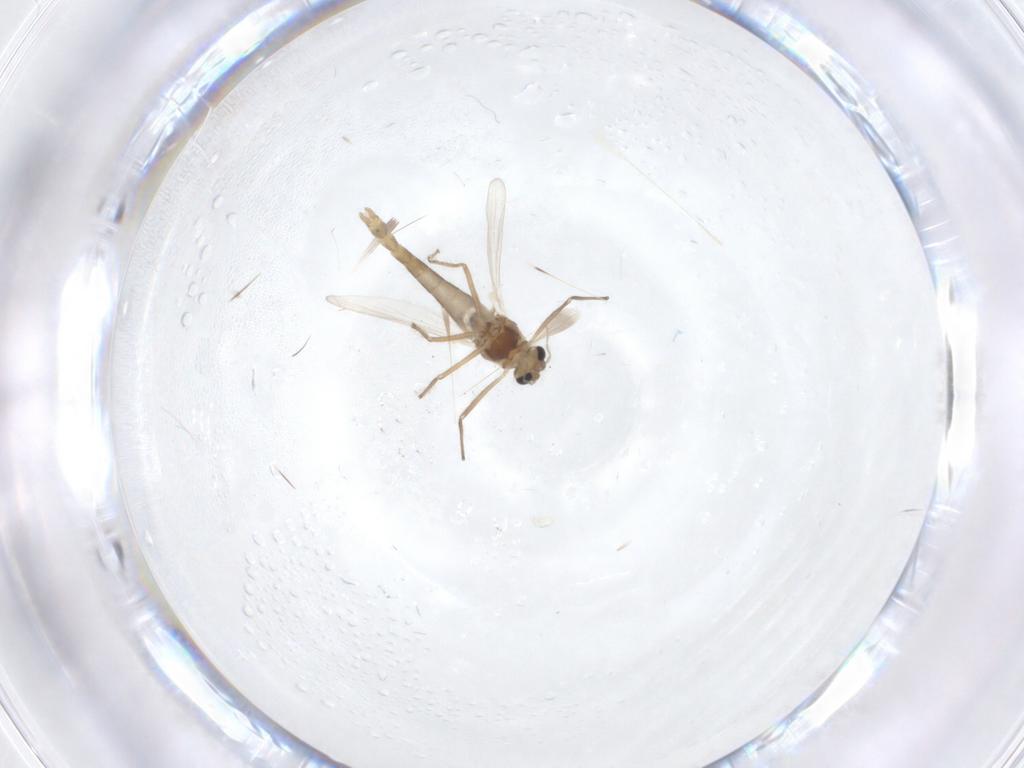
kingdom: Animalia
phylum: Arthropoda
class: Insecta
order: Diptera
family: Chironomidae
